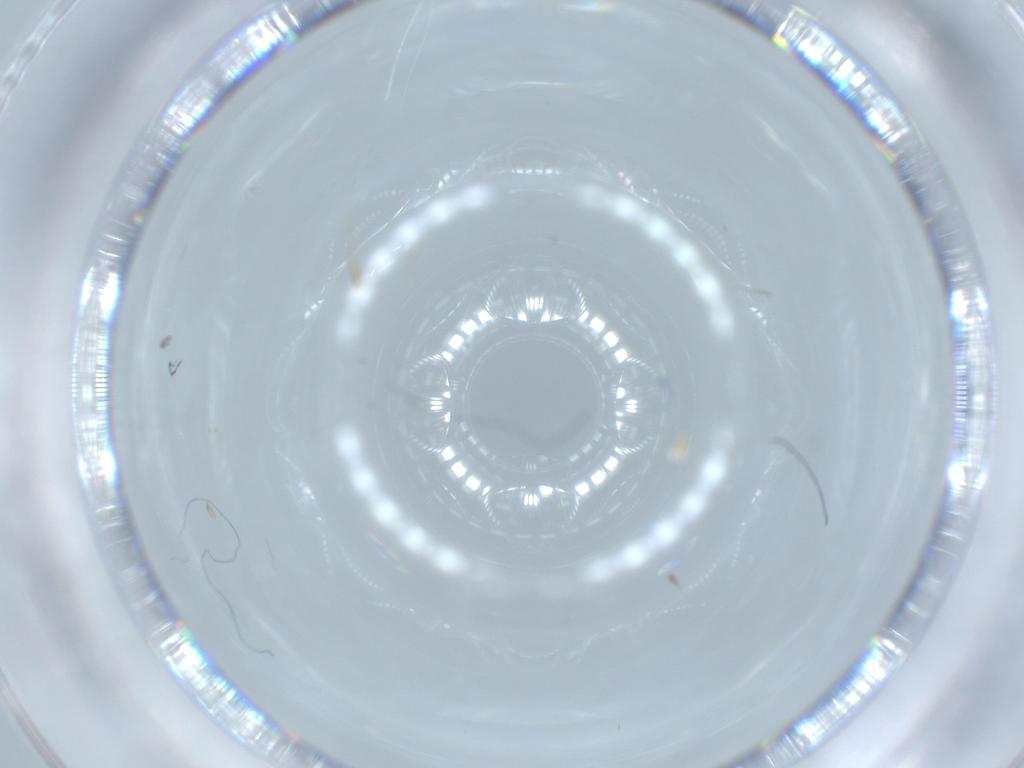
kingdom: Animalia
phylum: Arthropoda
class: Insecta
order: Diptera
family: Cecidomyiidae
